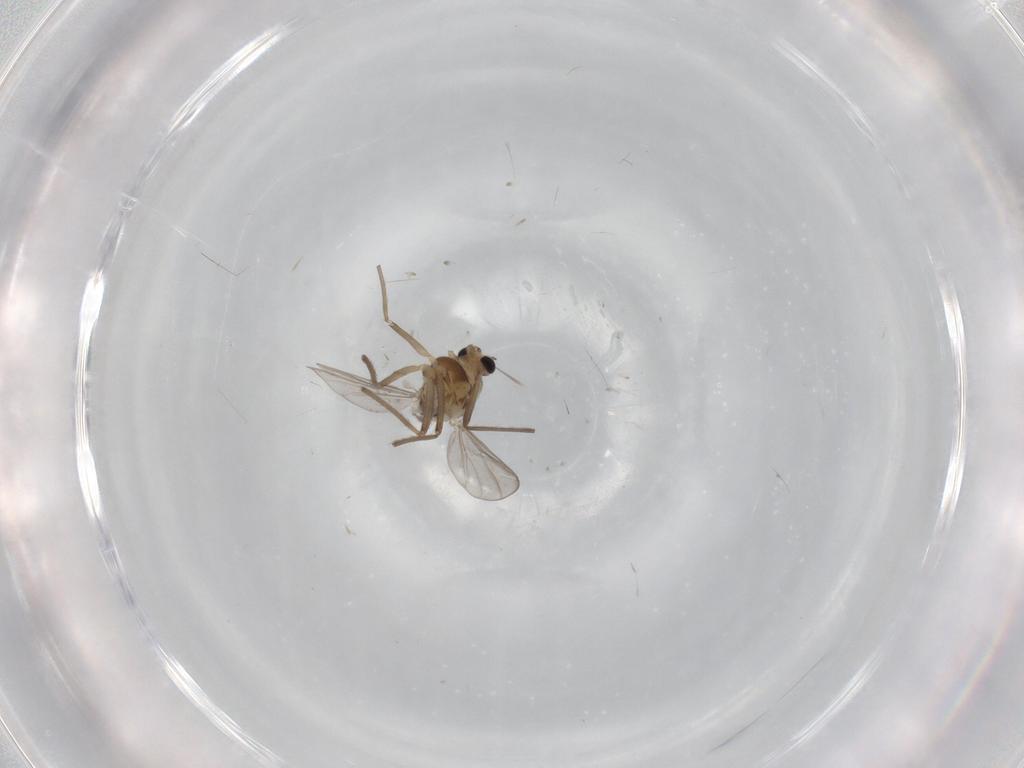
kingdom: Animalia
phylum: Arthropoda
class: Insecta
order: Diptera
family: Chironomidae
